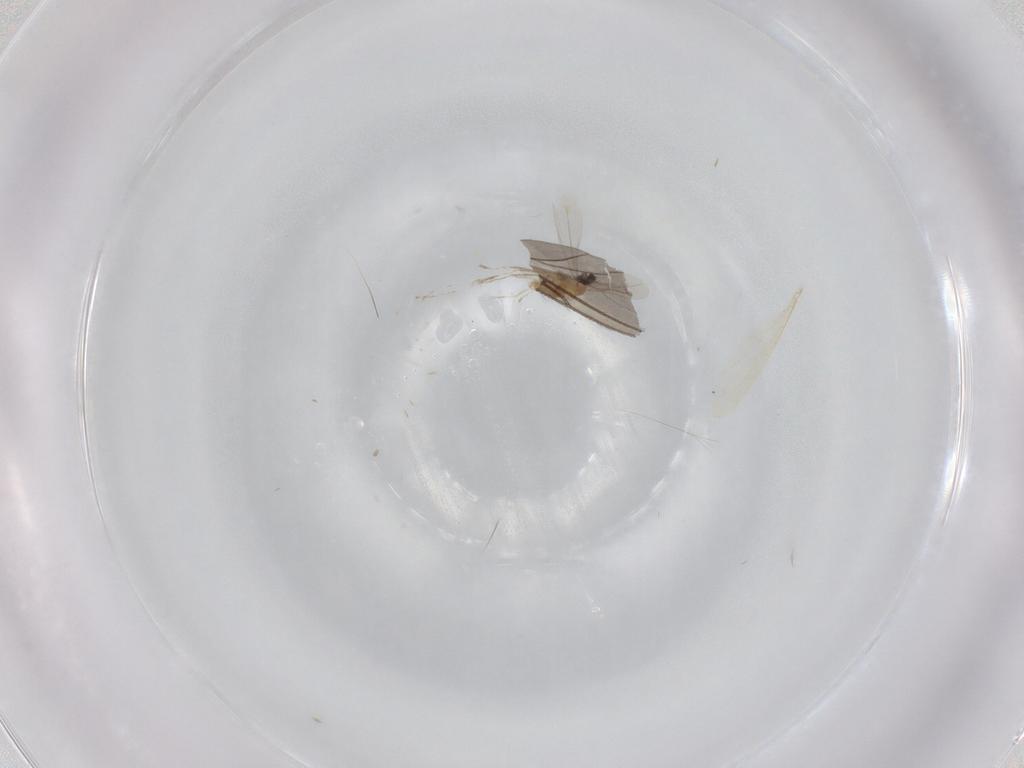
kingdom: Animalia
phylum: Arthropoda
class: Insecta
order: Diptera
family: Cecidomyiidae
